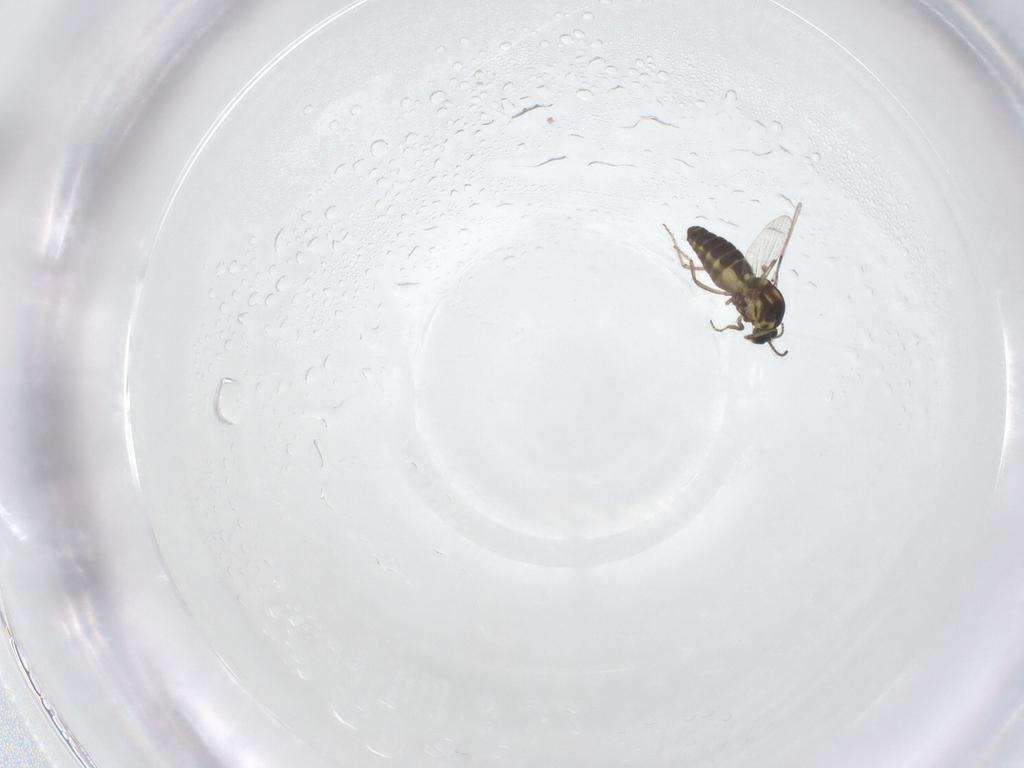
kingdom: Animalia
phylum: Arthropoda
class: Insecta
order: Diptera
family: Ceratopogonidae
